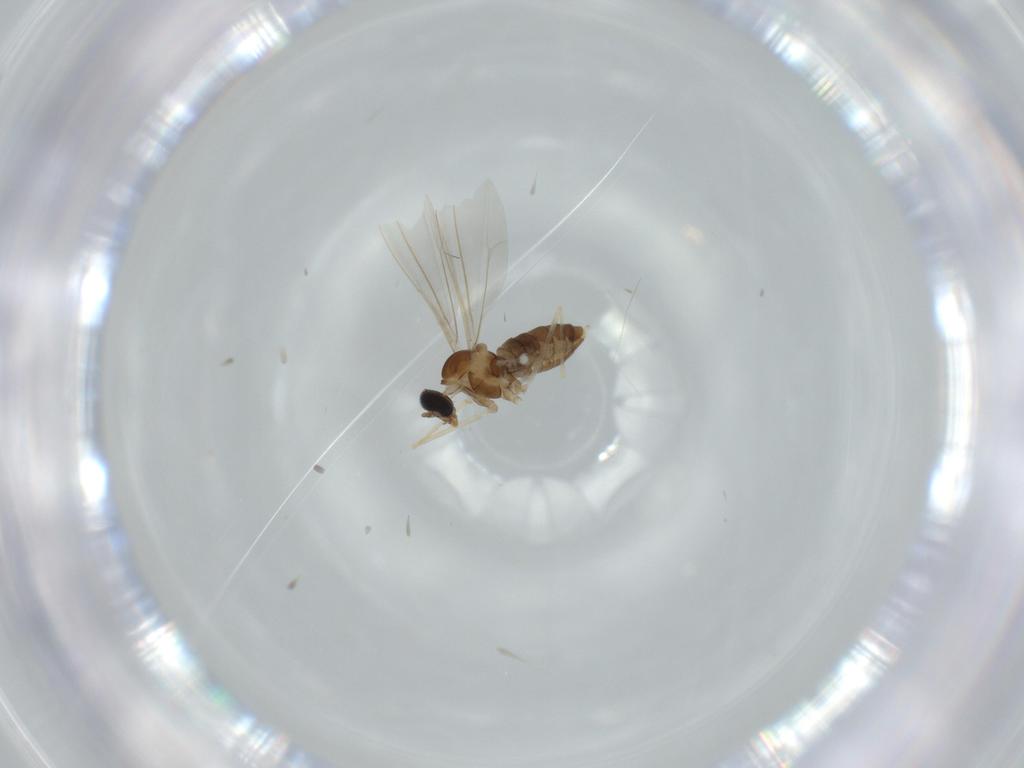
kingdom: Animalia
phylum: Arthropoda
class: Insecta
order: Diptera
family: Cecidomyiidae
